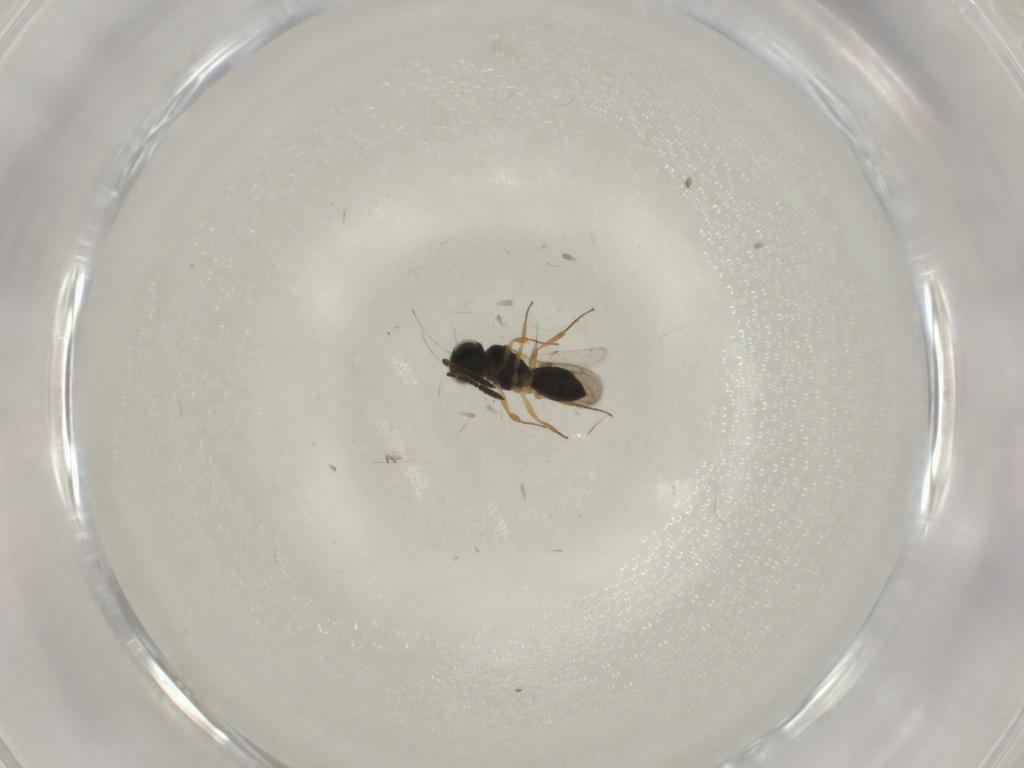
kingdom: Animalia
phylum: Arthropoda
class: Insecta
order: Hymenoptera
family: Scelionidae
